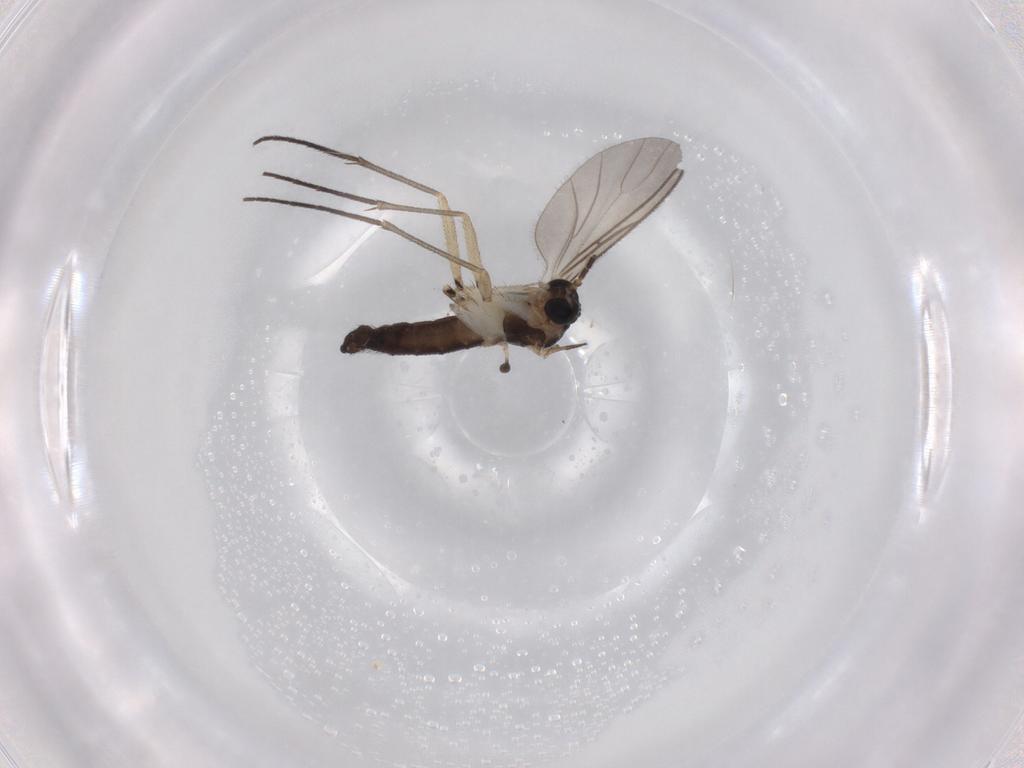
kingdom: Animalia
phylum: Arthropoda
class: Insecta
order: Diptera
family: Sciaridae
